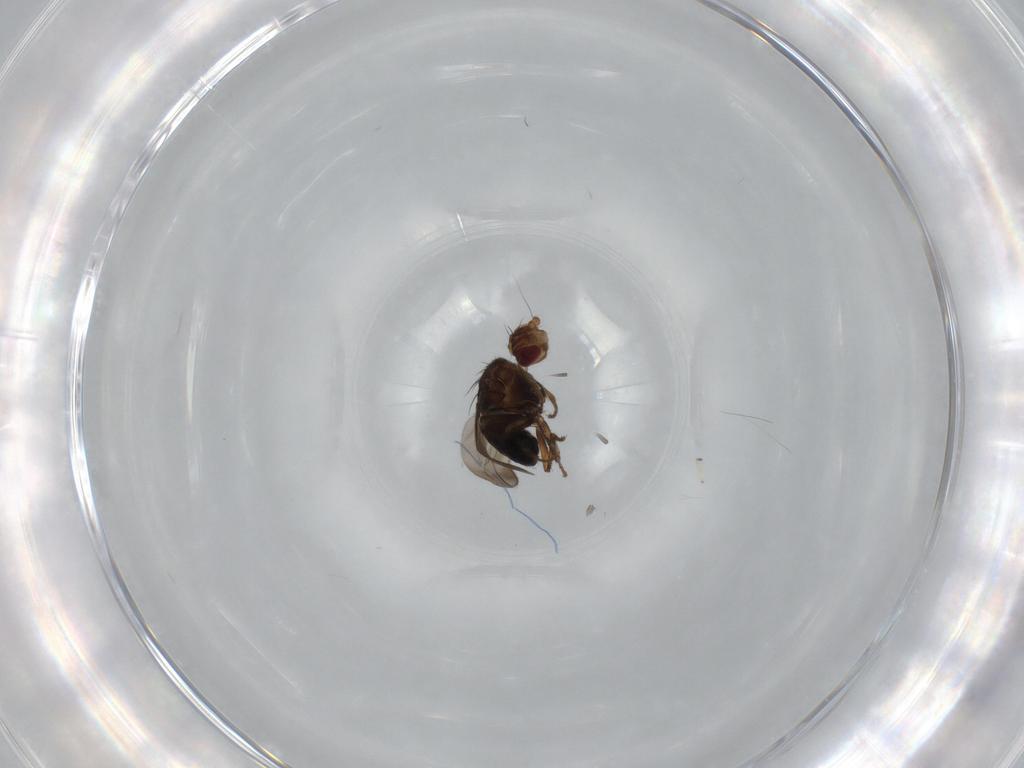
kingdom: Animalia
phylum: Arthropoda
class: Insecta
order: Diptera
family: Sphaeroceridae
